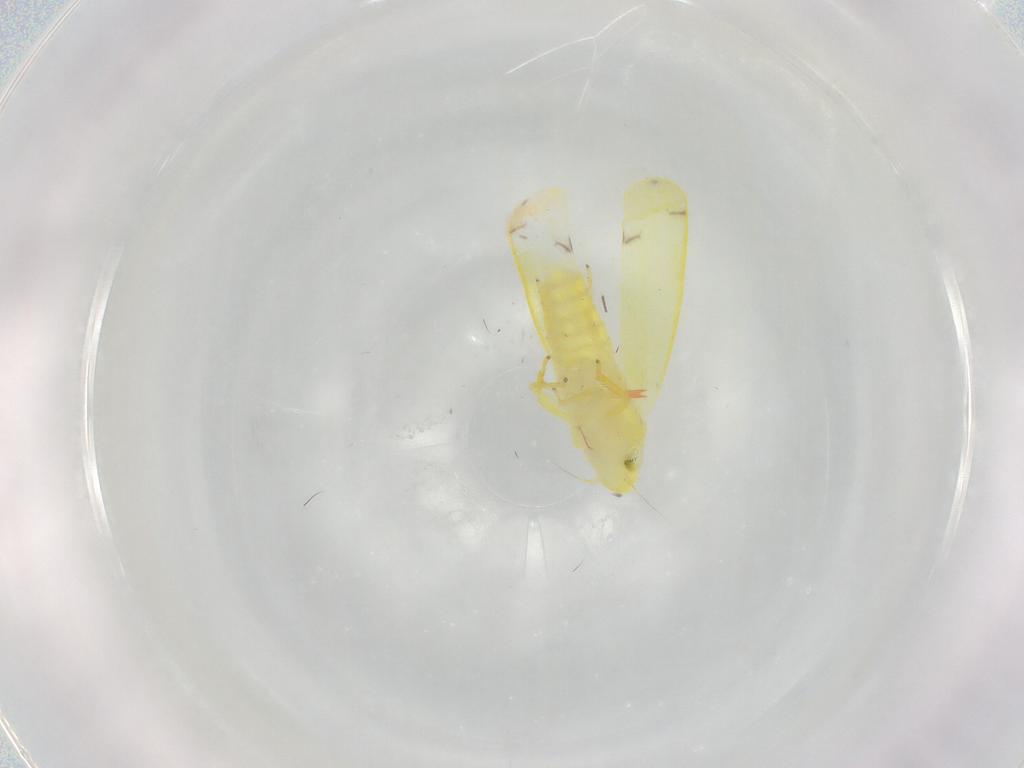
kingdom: Animalia
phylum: Arthropoda
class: Insecta
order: Hemiptera
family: Cicadellidae
